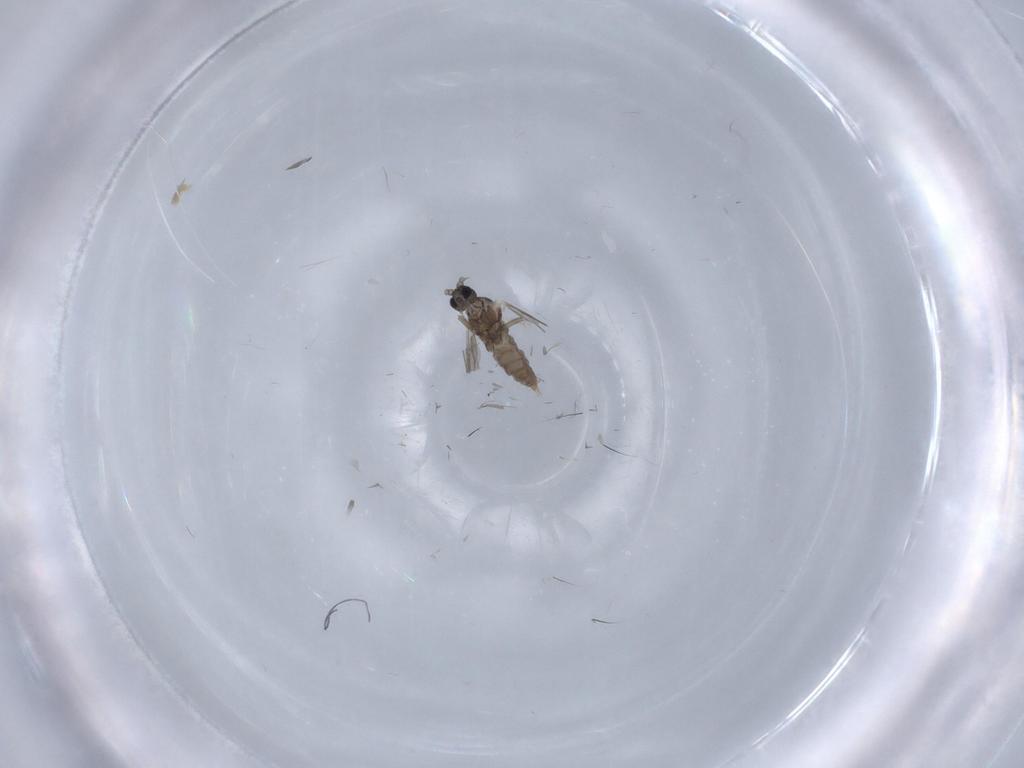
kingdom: Animalia
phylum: Arthropoda
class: Insecta
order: Diptera
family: Cecidomyiidae
